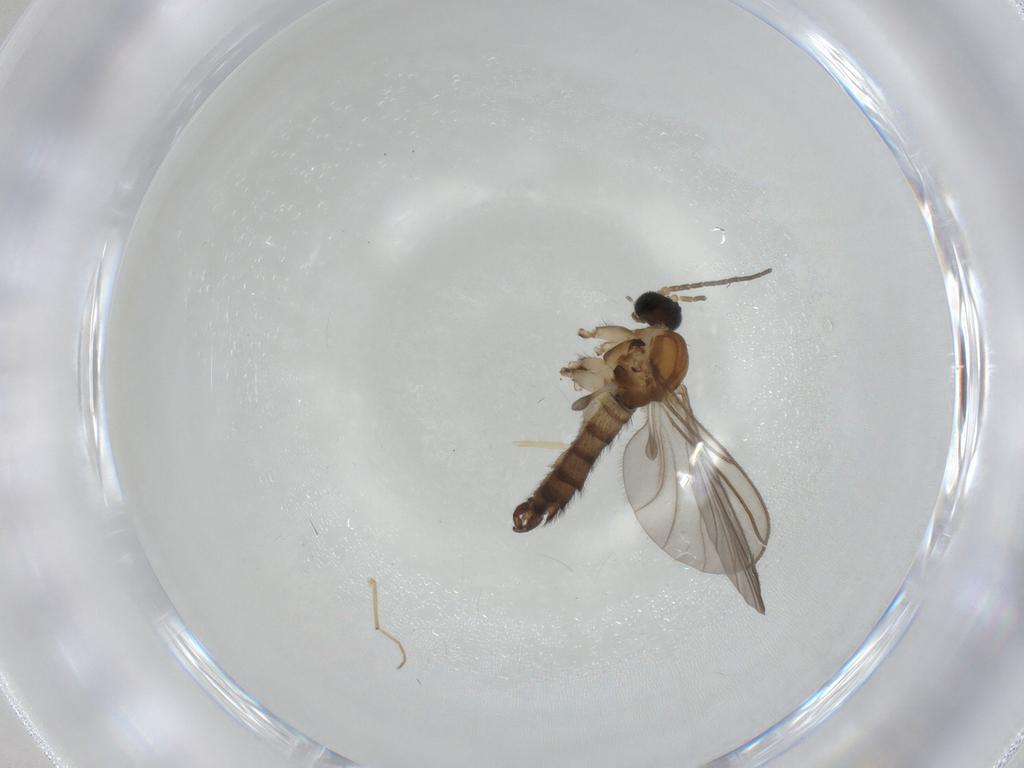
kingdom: Animalia
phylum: Arthropoda
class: Insecta
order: Diptera
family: Sciaridae
